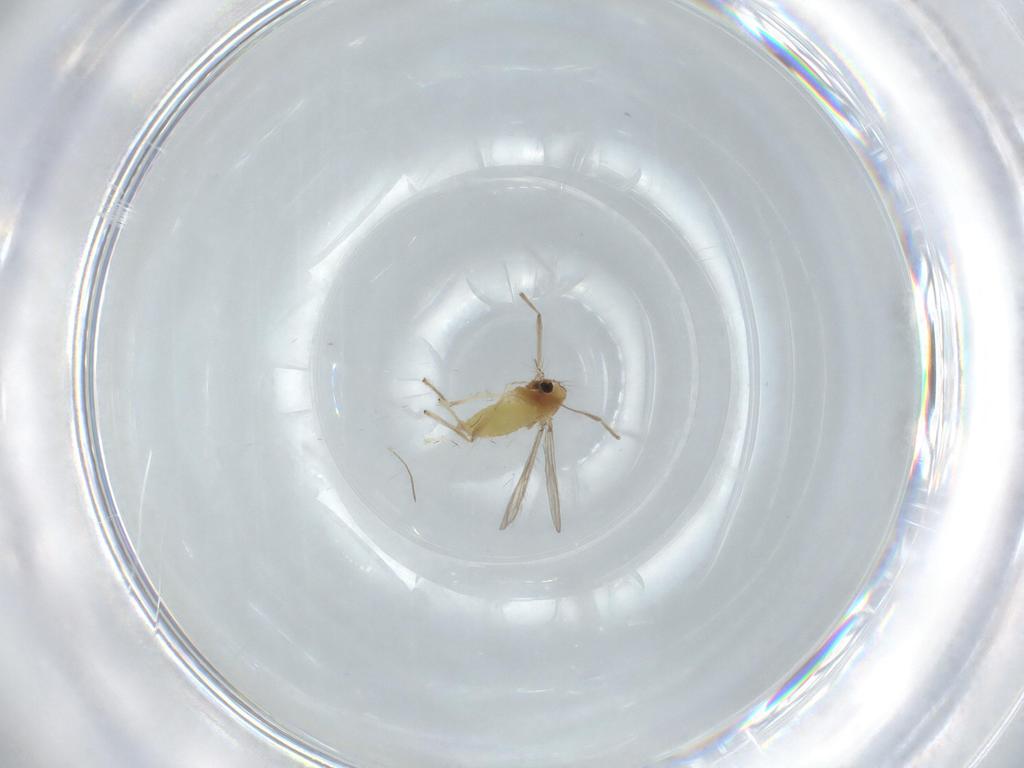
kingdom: Animalia
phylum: Arthropoda
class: Insecta
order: Diptera
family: Chironomidae
